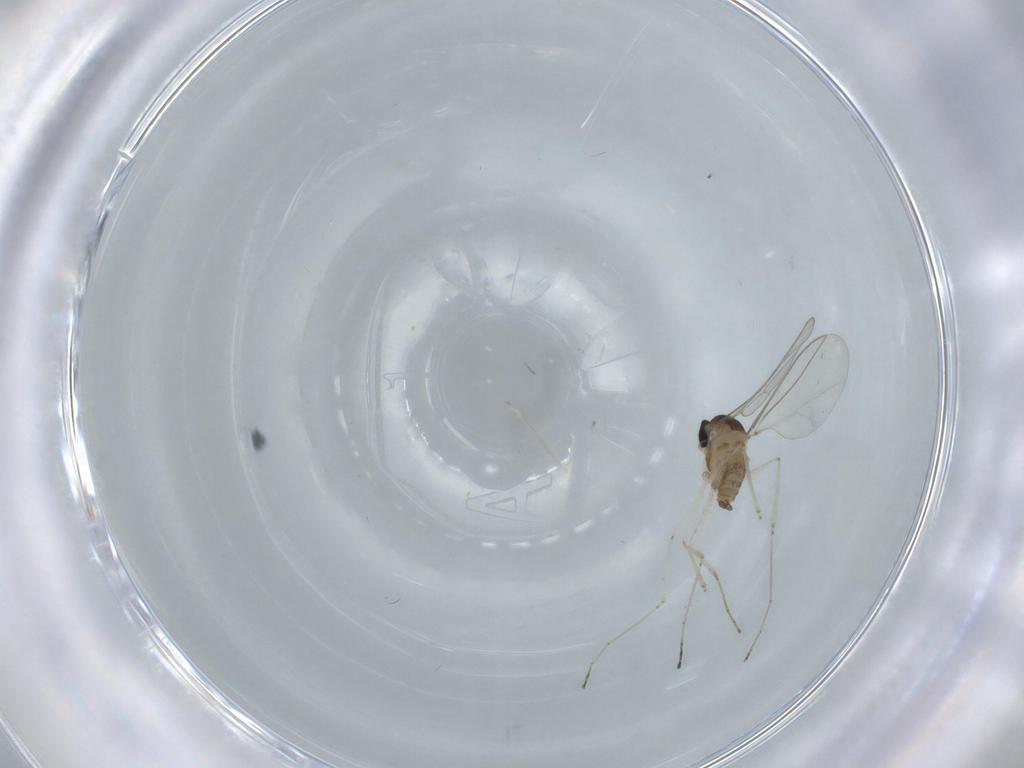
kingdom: Animalia
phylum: Arthropoda
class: Insecta
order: Diptera
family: Cecidomyiidae
